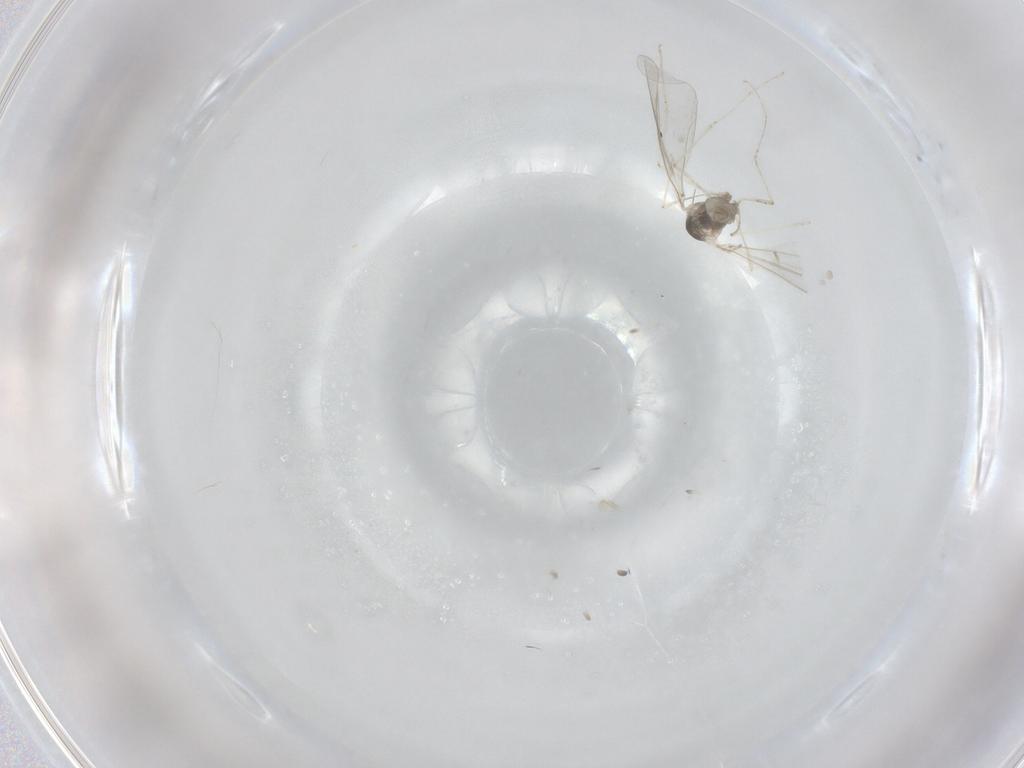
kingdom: Animalia
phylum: Arthropoda
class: Insecta
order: Diptera
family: Cecidomyiidae
